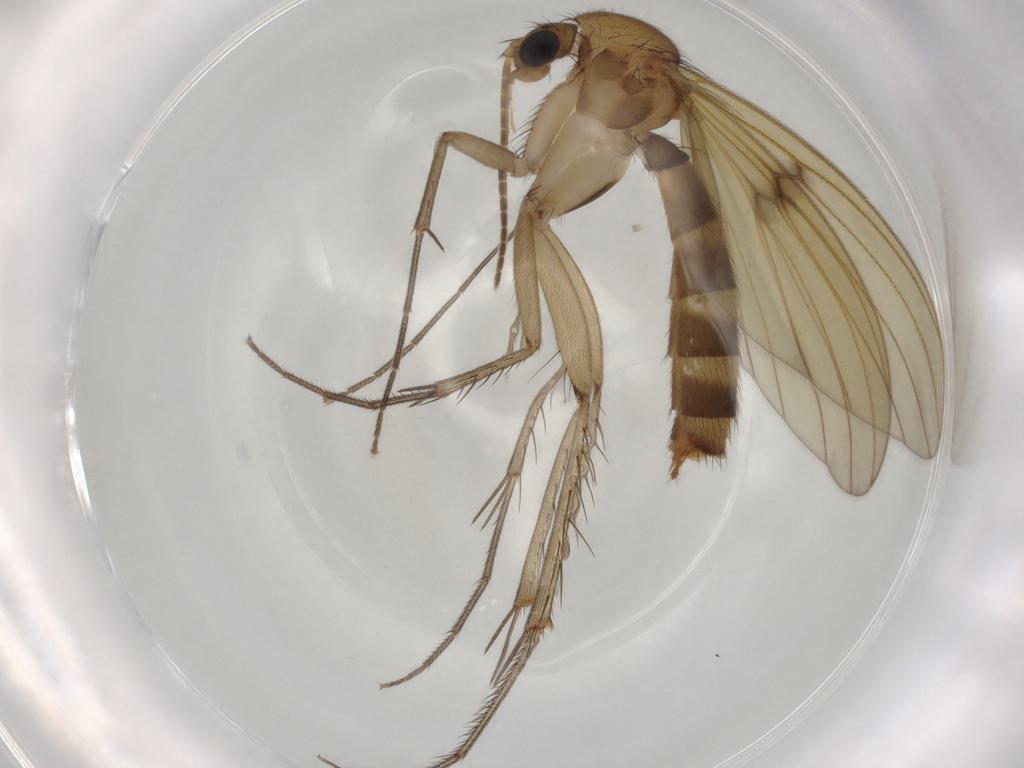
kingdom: Animalia
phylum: Arthropoda
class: Insecta
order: Diptera
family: Mycetophilidae
